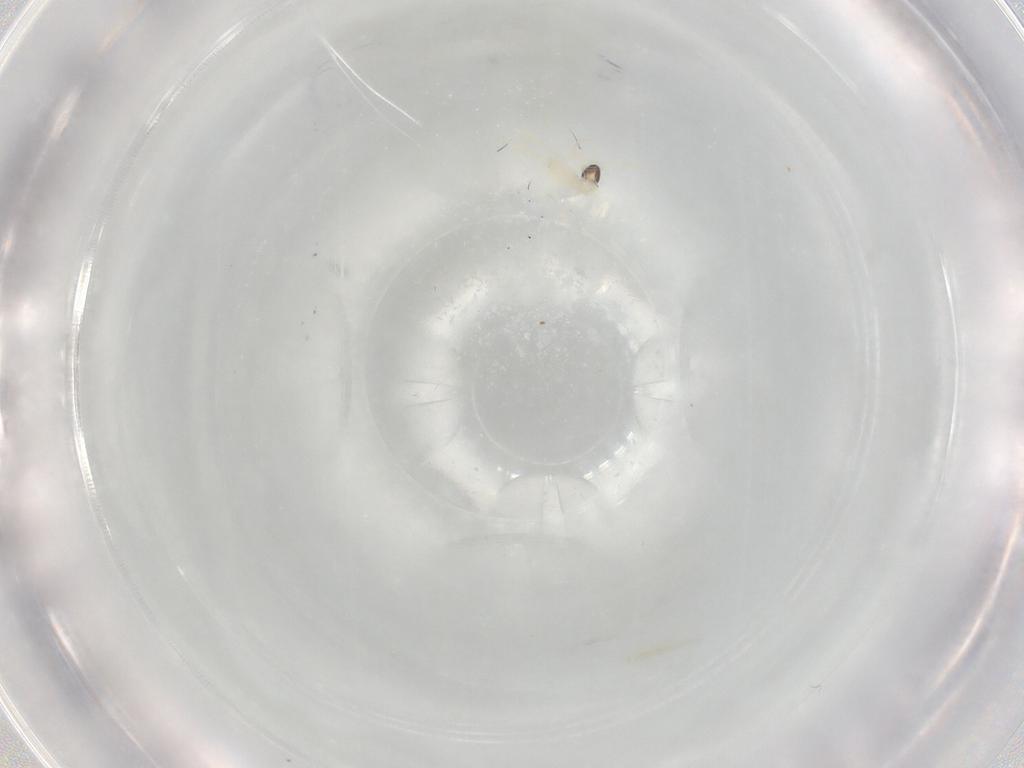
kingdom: Animalia
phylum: Arthropoda
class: Insecta
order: Diptera
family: Cecidomyiidae
